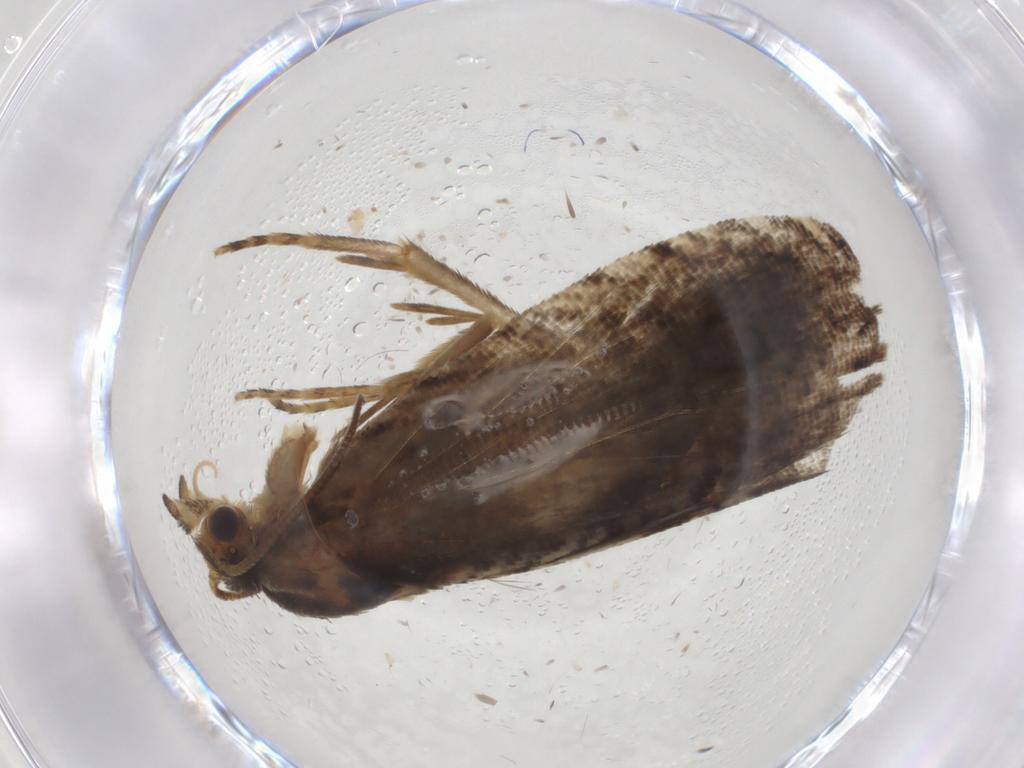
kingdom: Animalia
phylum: Arthropoda
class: Insecta
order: Lepidoptera
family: Tortricidae
